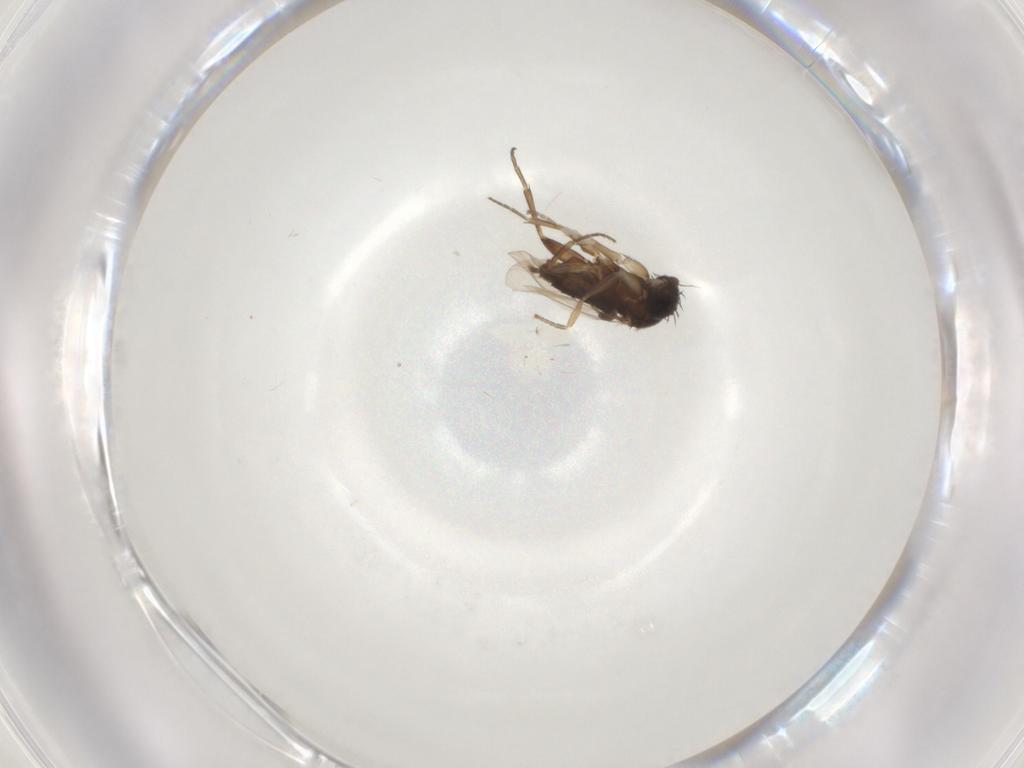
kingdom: Animalia
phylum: Arthropoda
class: Insecta
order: Diptera
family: Phoridae
